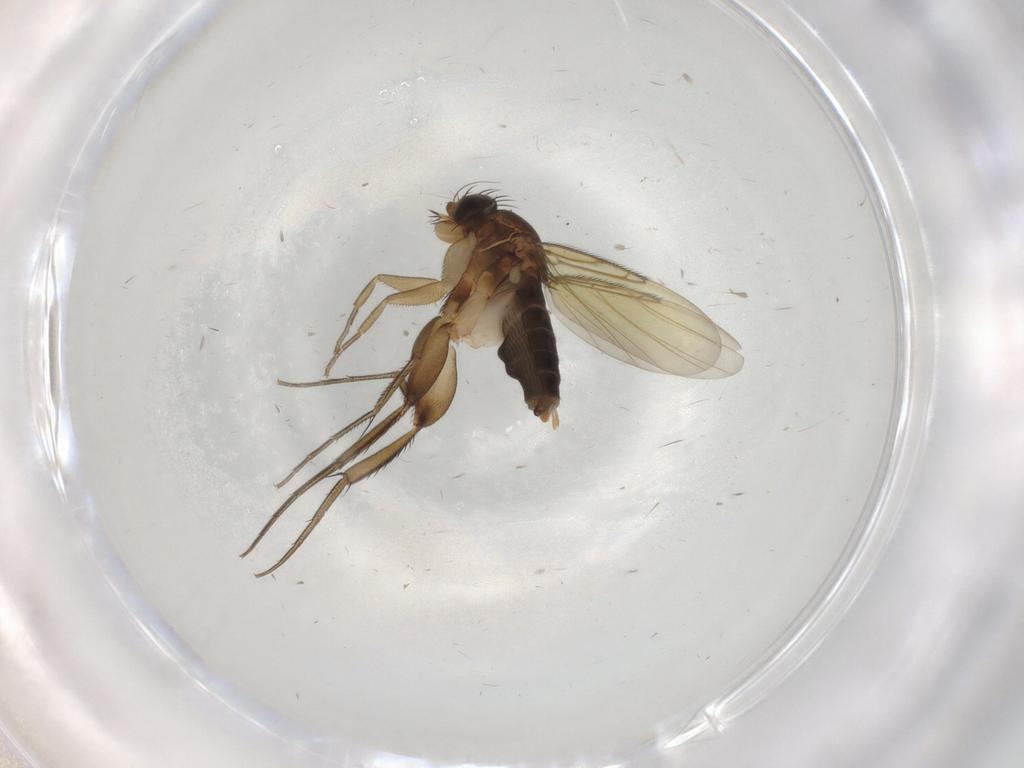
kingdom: Animalia
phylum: Arthropoda
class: Insecta
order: Diptera
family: Phoridae
